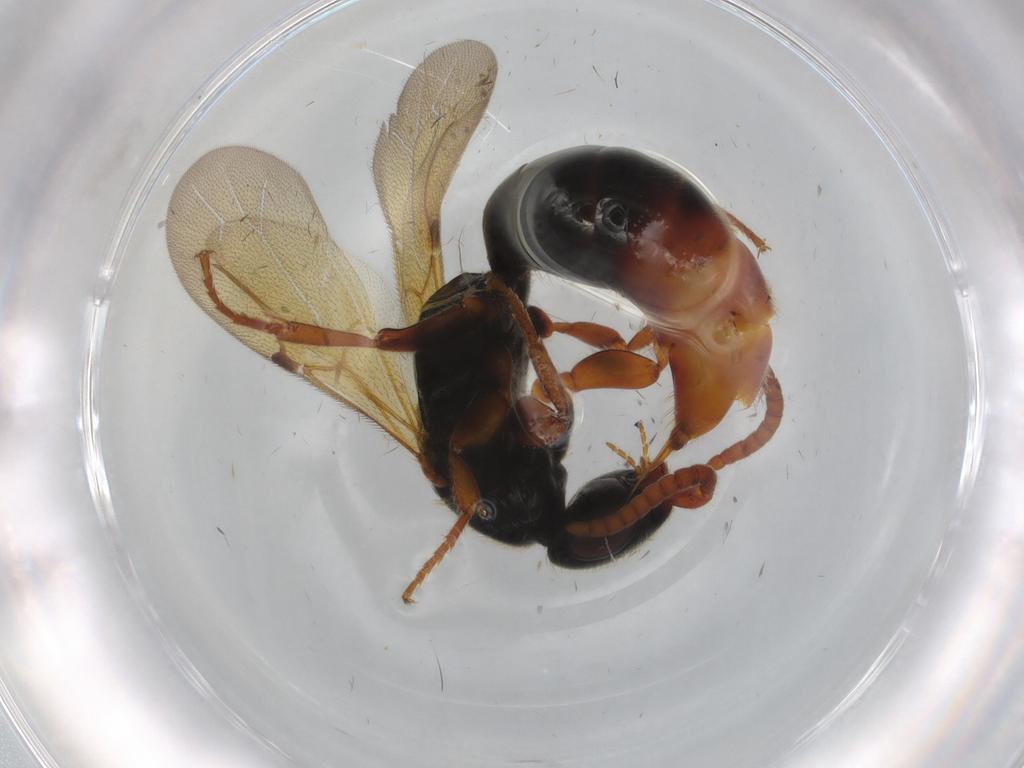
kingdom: Animalia
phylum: Arthropoda
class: Insecta
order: Hymenoptera
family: Bethylidae
